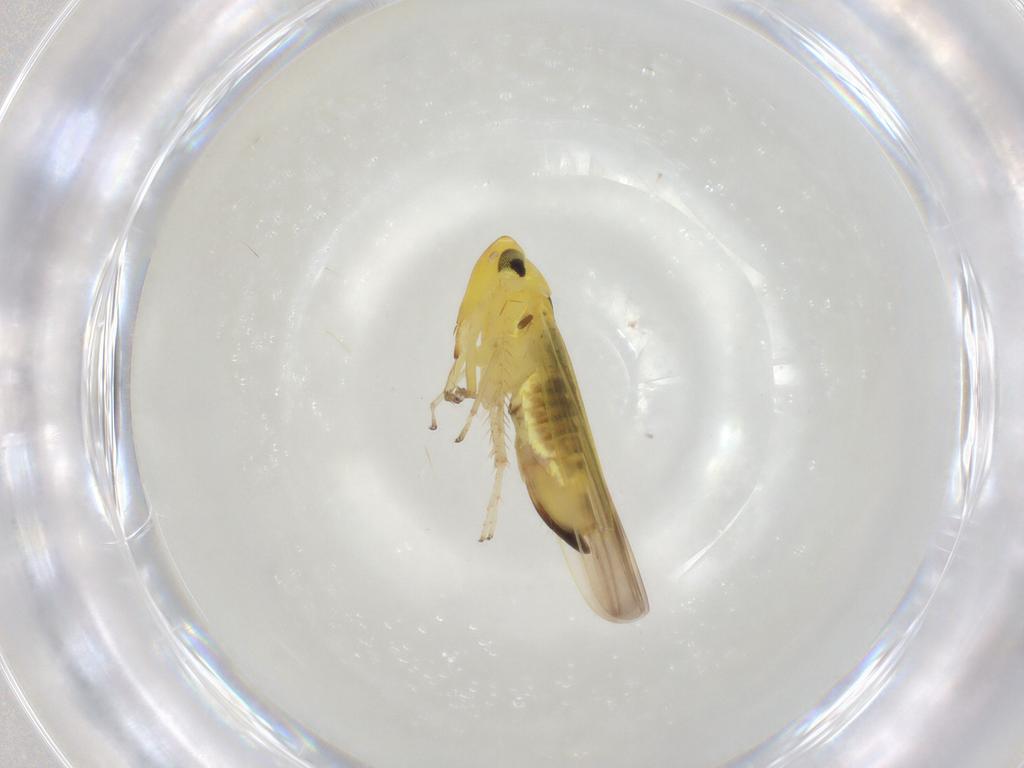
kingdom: Animalia
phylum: Arthropoda
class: Insecta
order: Hemiptera
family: Cicadellidae
